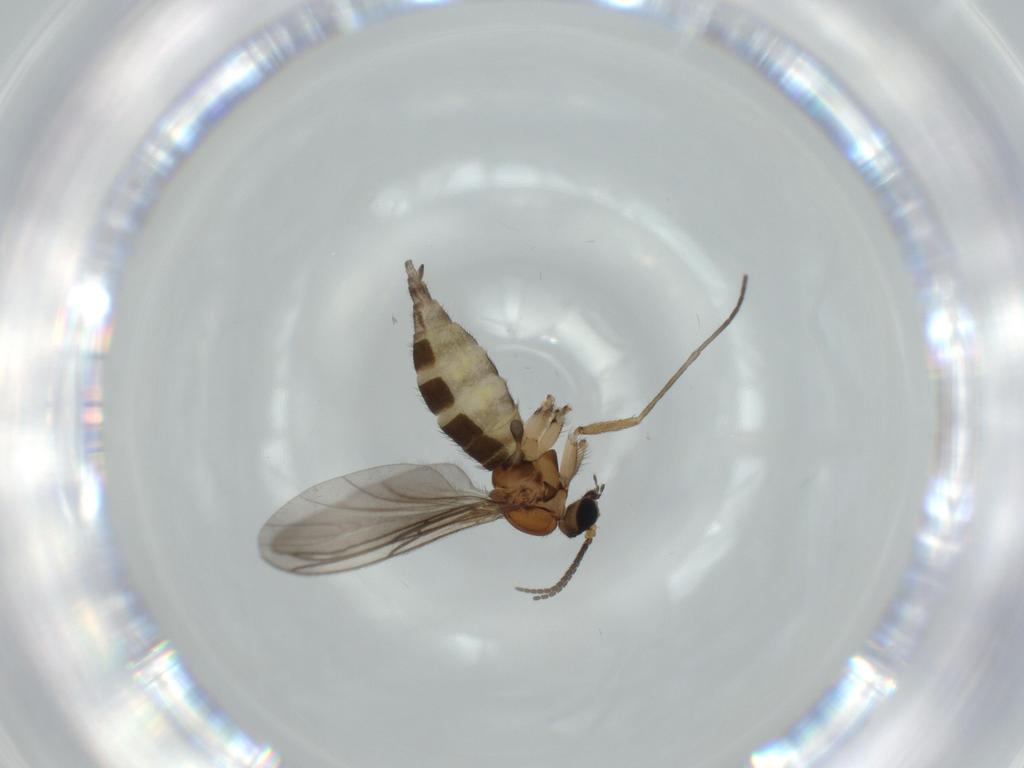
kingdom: Animalia
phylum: Arthropoda
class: Insecta
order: Diptera
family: Sciaridae
